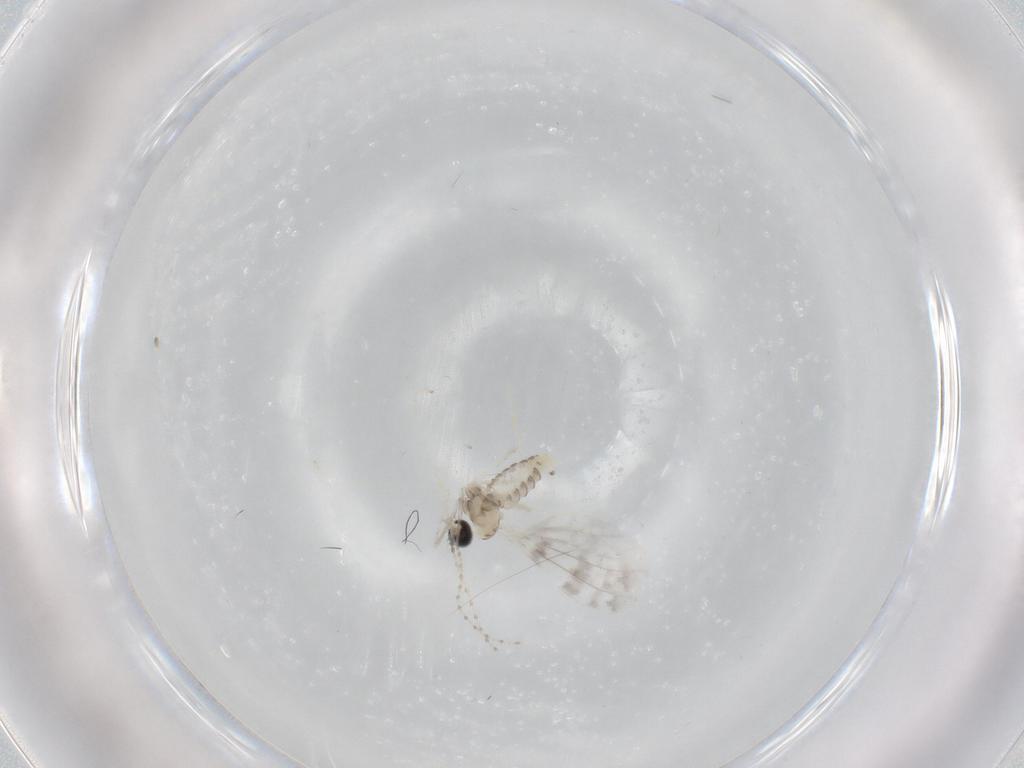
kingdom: Animalia
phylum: Arthropoda
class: Insecta
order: Diptera
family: Cecidomyiidae
